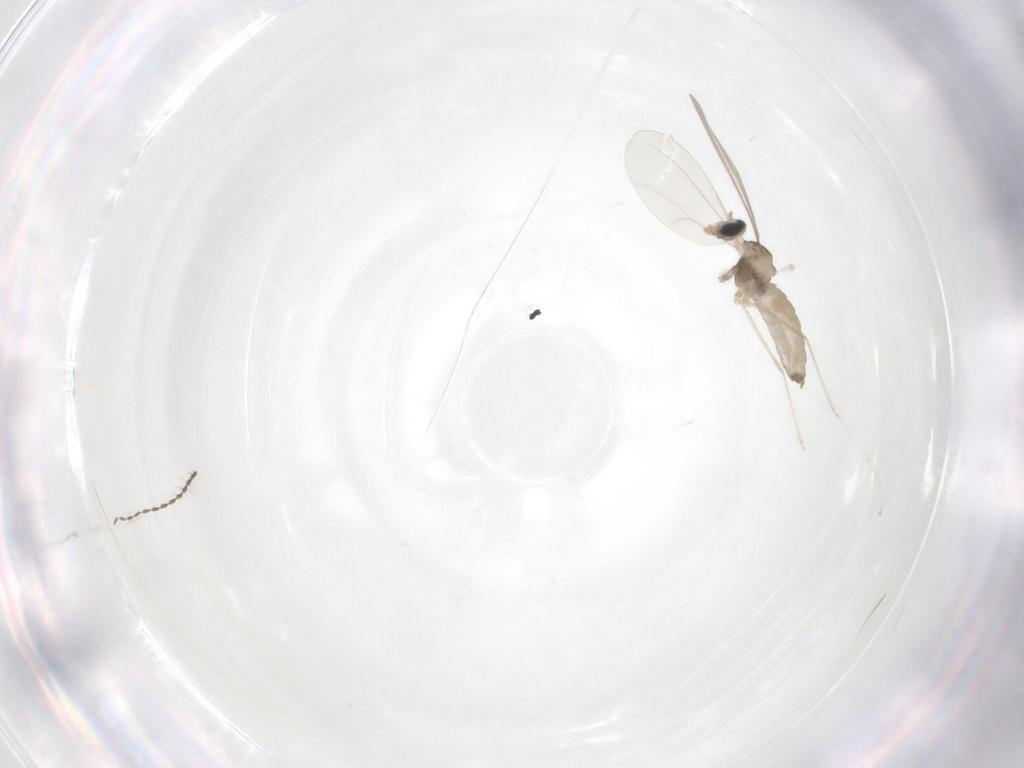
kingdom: Animalia
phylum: Arthropoda
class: Insecta
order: Diptera
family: Cecidomyiidae
